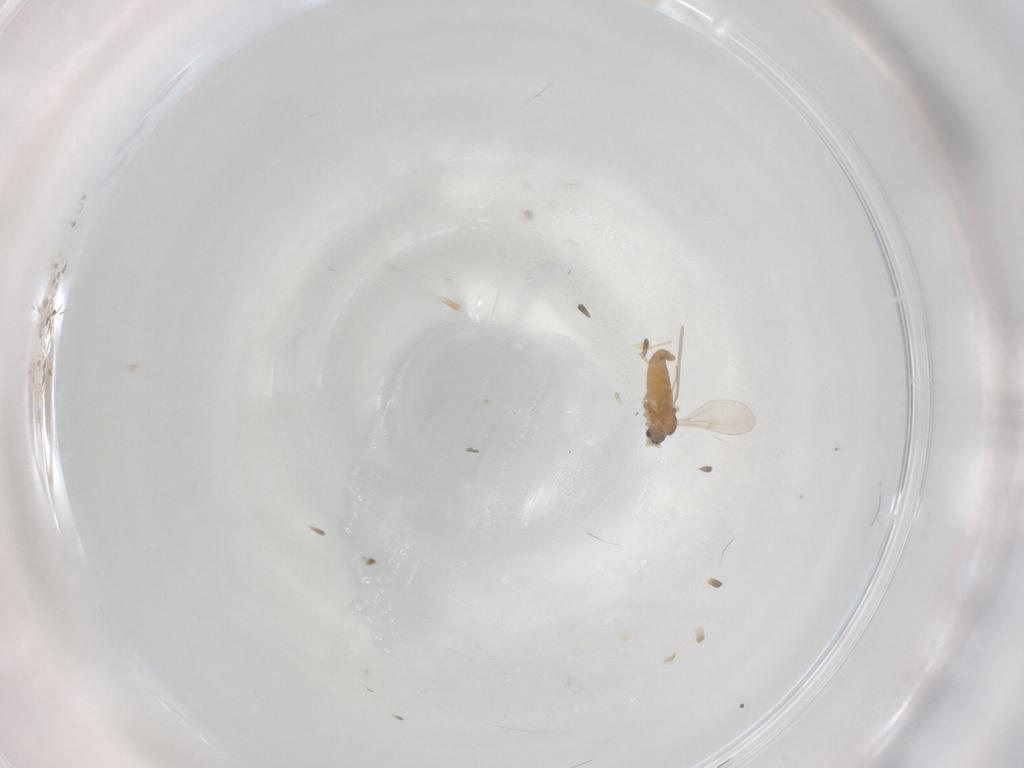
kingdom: Animalia
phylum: Arthropoda
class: Insecta
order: Diptera
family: Cecidomyiidae
